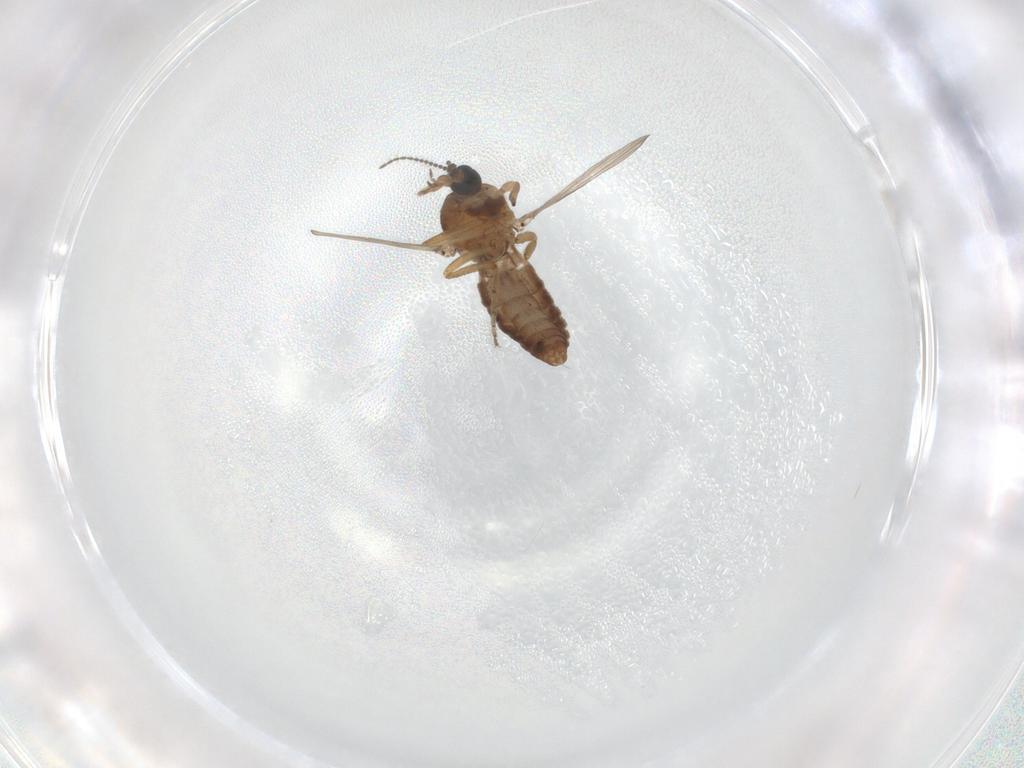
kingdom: Animalia
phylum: Arthropoda
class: Insecta
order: Diptera
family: Ceratopogonidae
